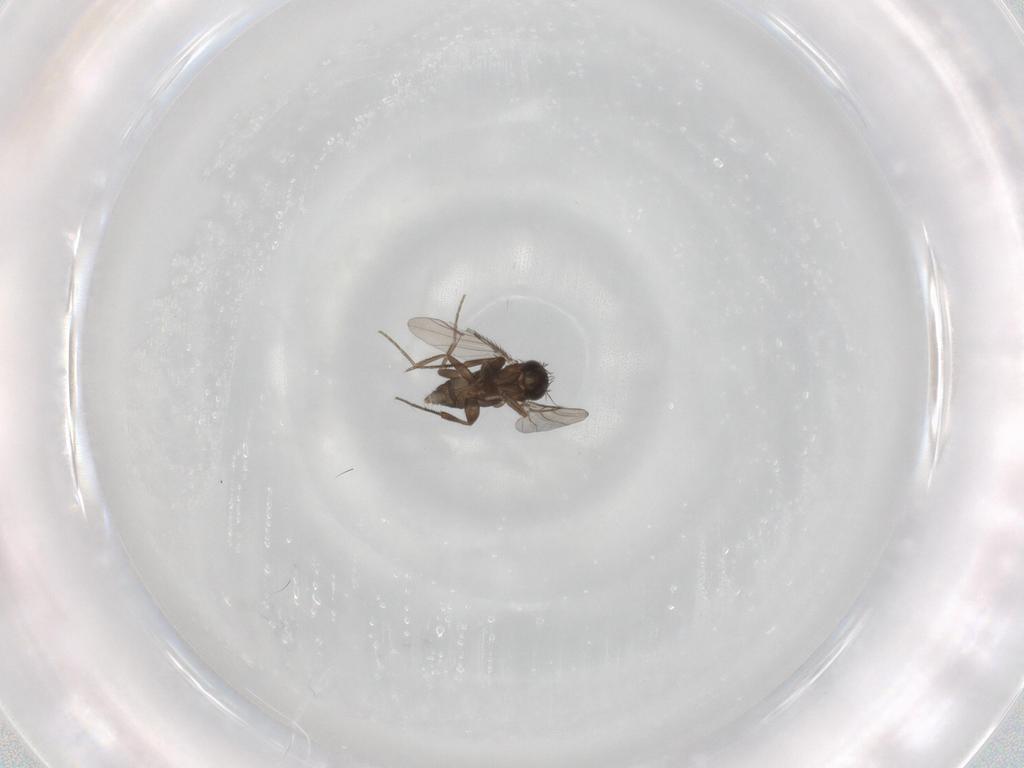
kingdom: Animalia
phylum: Arthropoda
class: Insecta
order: Diptera
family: Phoridae
